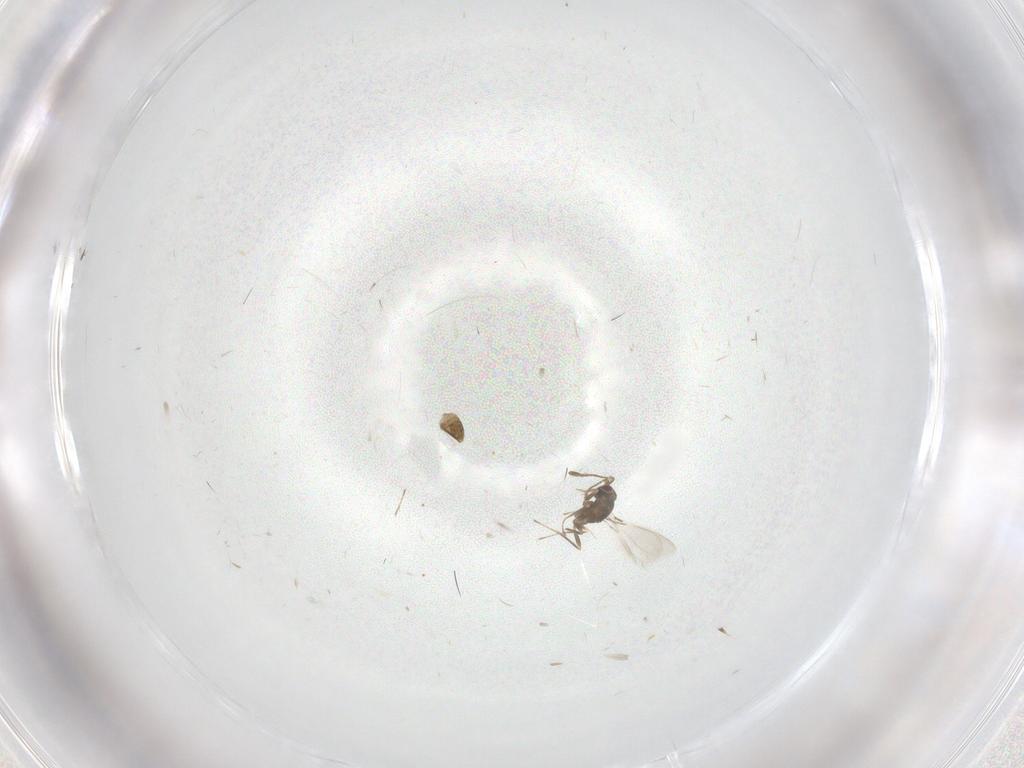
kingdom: Animalia
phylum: Arthropoda
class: Insecta
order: Hymenoptera
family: Mymaridae
